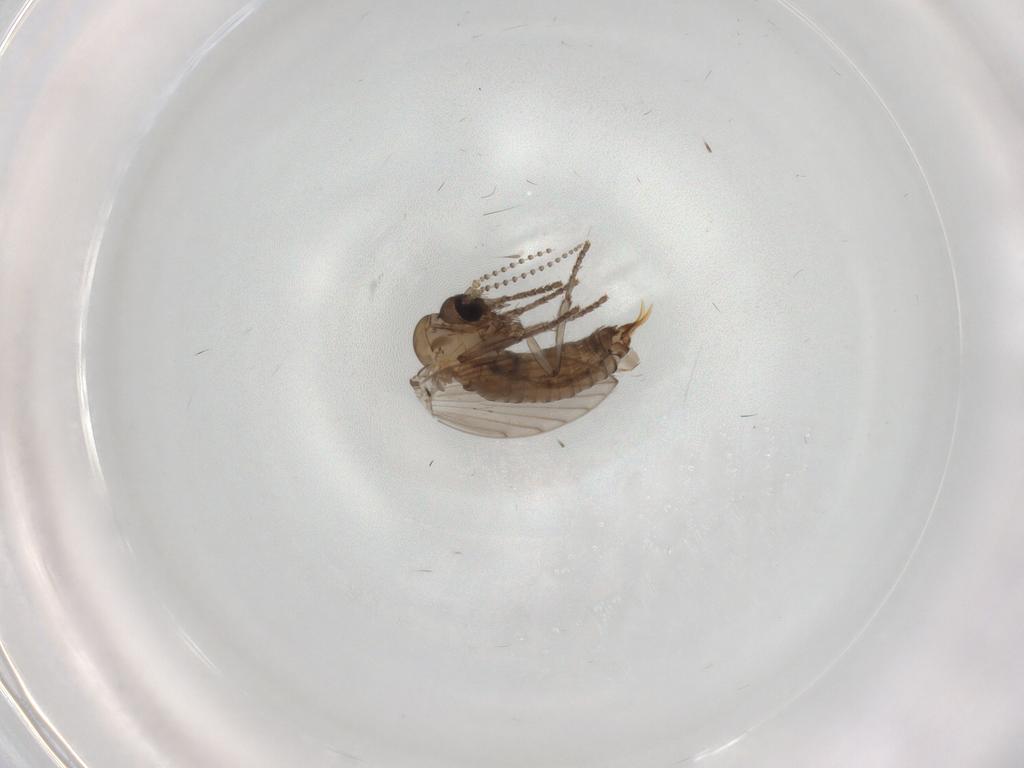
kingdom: Animalia
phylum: Arthropoda
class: Insecta
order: Diptera
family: Psychodidae
